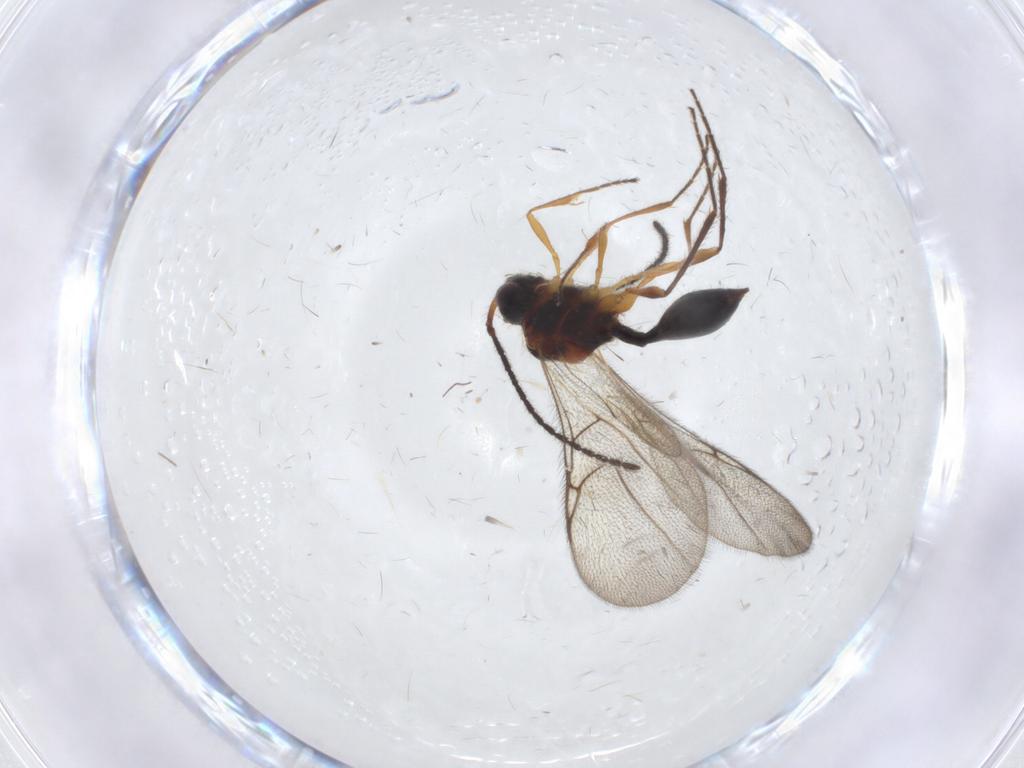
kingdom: Animalia
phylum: Arthropoda
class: Insecta
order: Hymenoptera
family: Diapriidae
